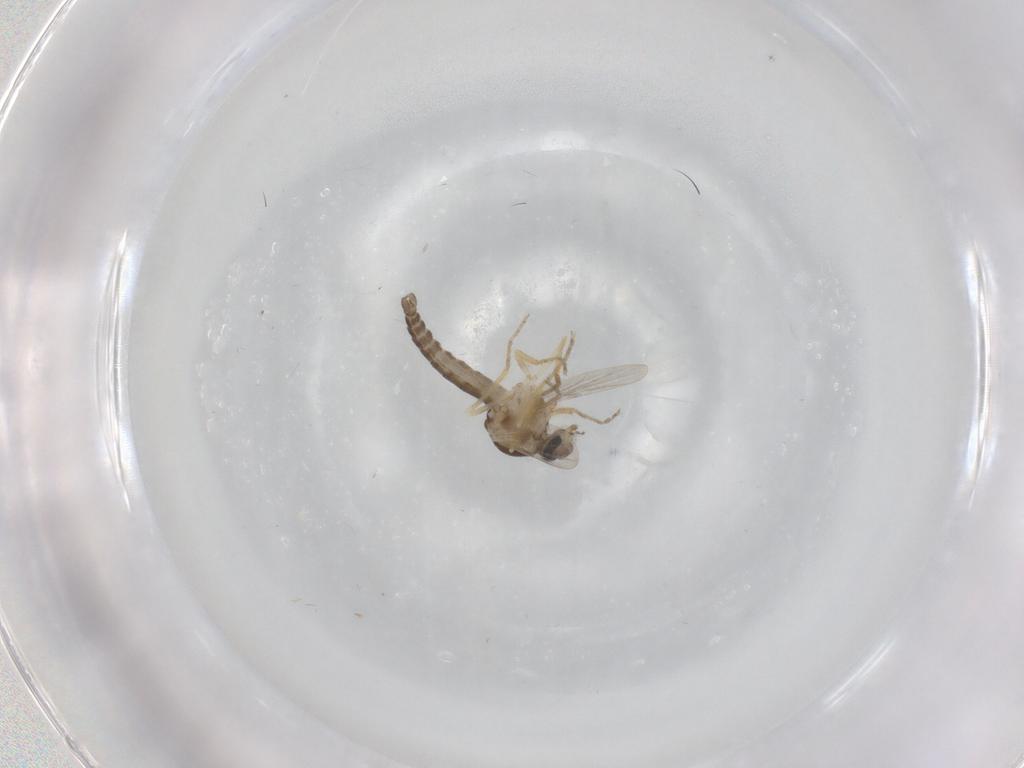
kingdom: Animalia
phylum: Arthropoda
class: Insecta
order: Diptera
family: Ceratopogonidae
